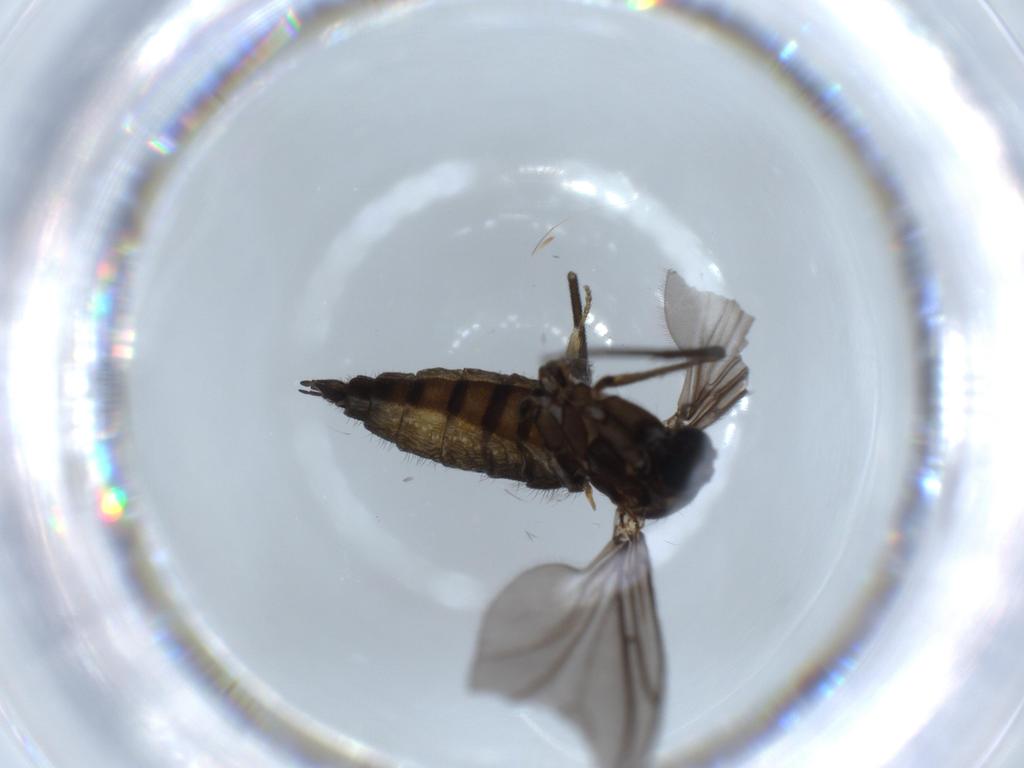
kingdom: Animalia
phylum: Arthropoda
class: Insecta
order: Diptera
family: Sciaridae
